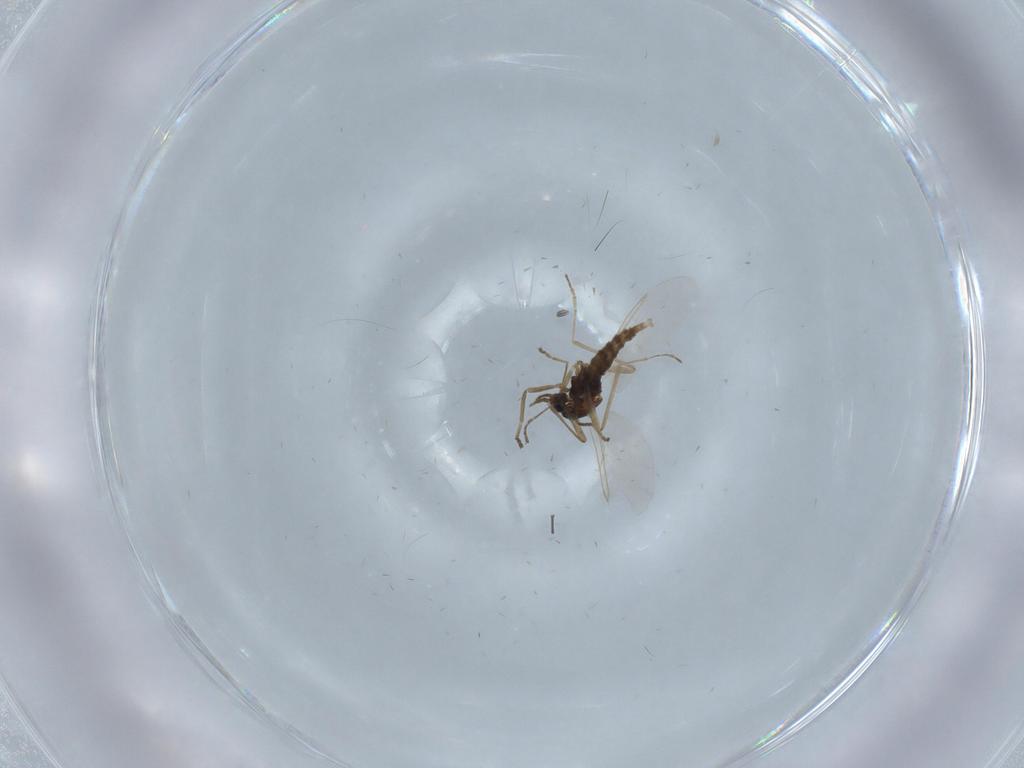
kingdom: Animalia
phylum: Arthropoda
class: Insecta
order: Diptera
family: Cecidomyiidae
